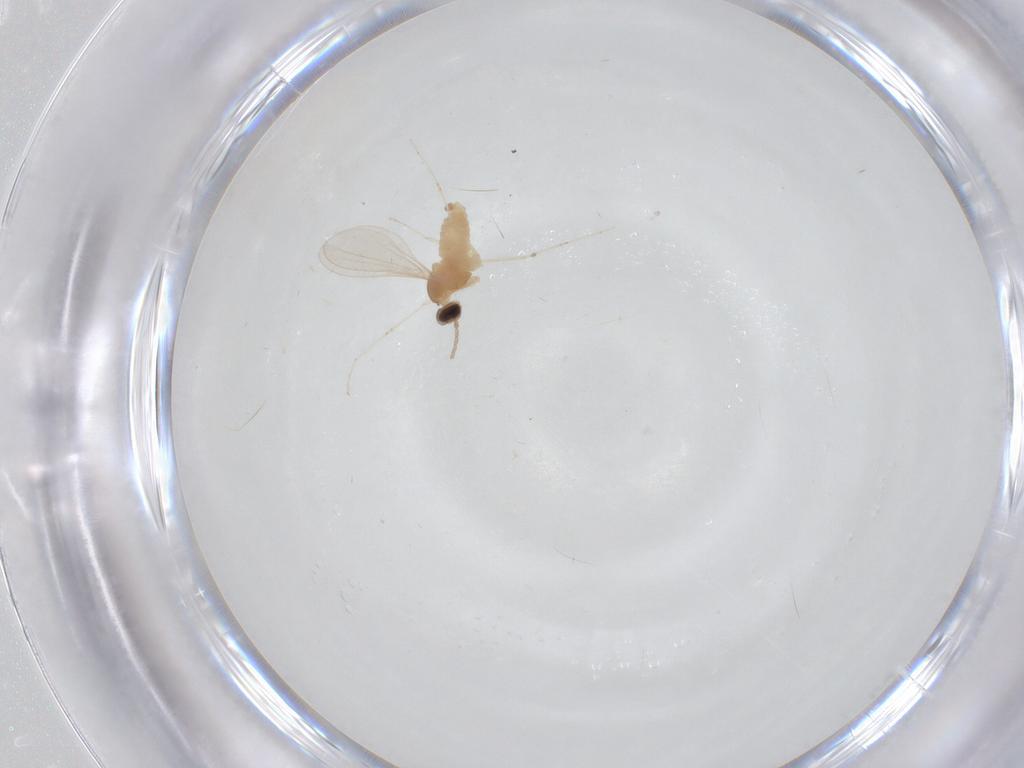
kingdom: Animalia
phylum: Arthropoda
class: Insecta
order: Diptera
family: Cecidomyiidae
